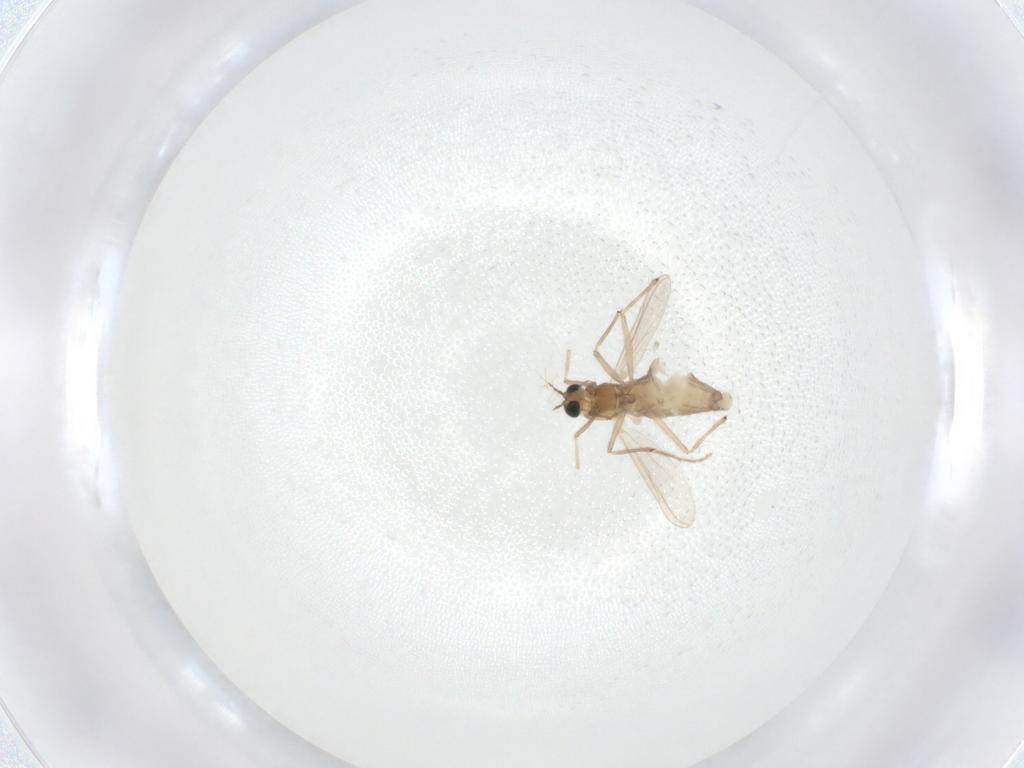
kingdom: Animalia
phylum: Arthropoda
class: Insecta
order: Diptera
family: Chironomidae
